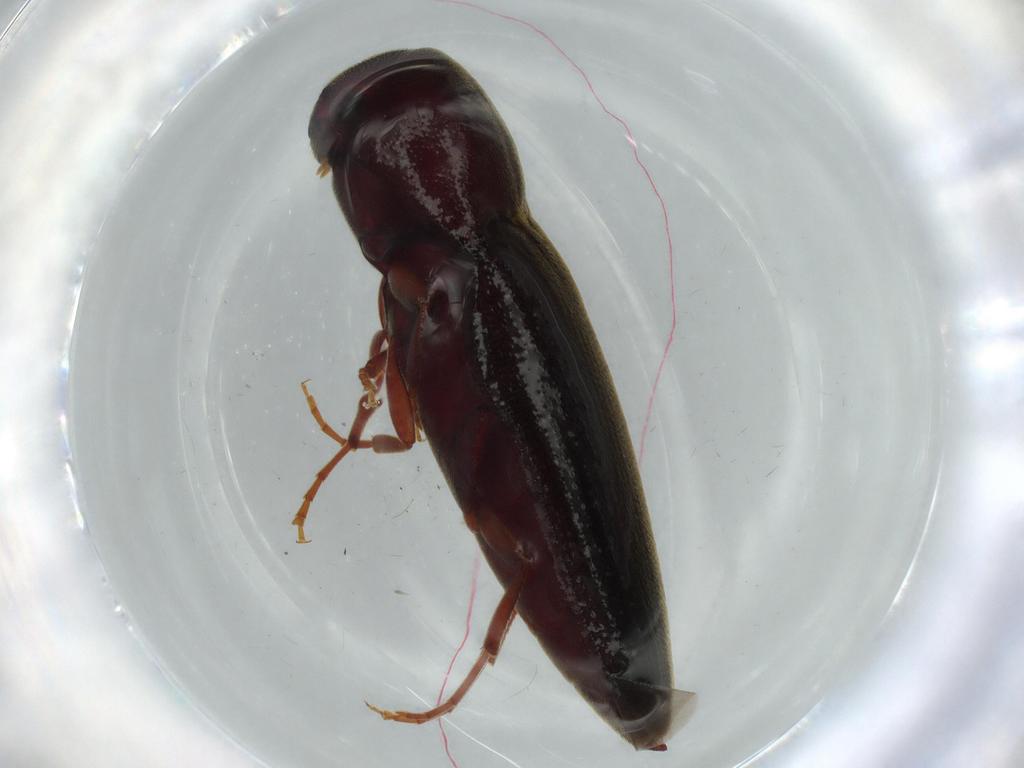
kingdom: Animalia
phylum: Arthropoda
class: Insecta
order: Coleoptera
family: Eucnemidae
